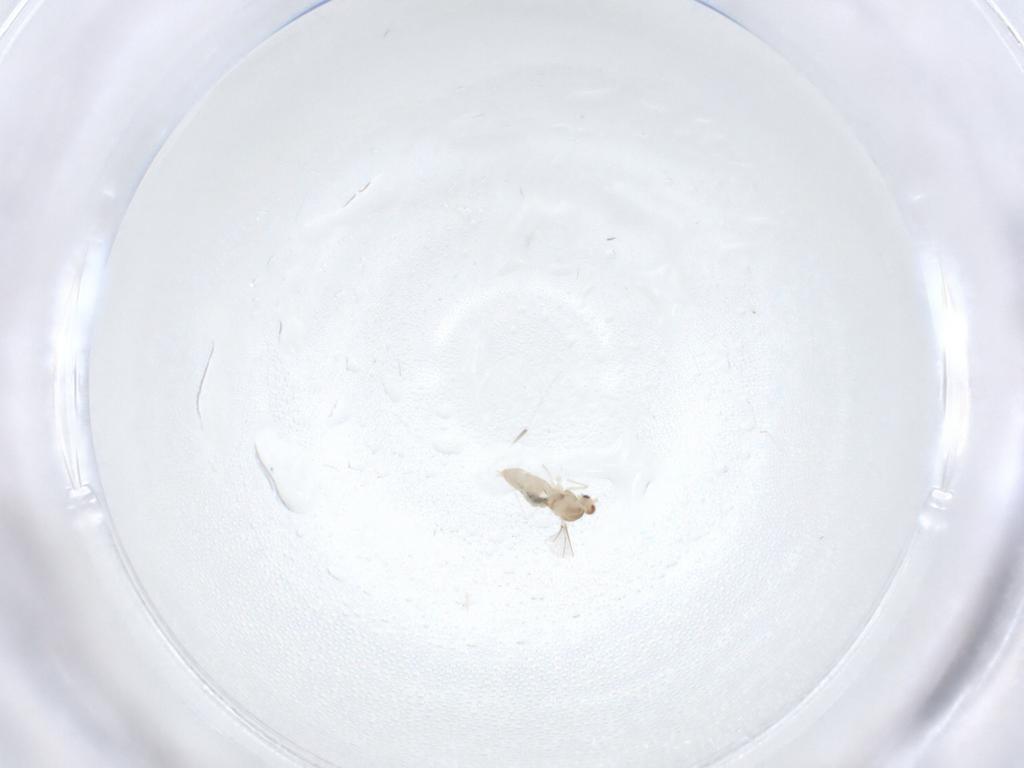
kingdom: Animalia
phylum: Arthropoda
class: Insecta
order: Diptera
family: Cecidomyiidae
